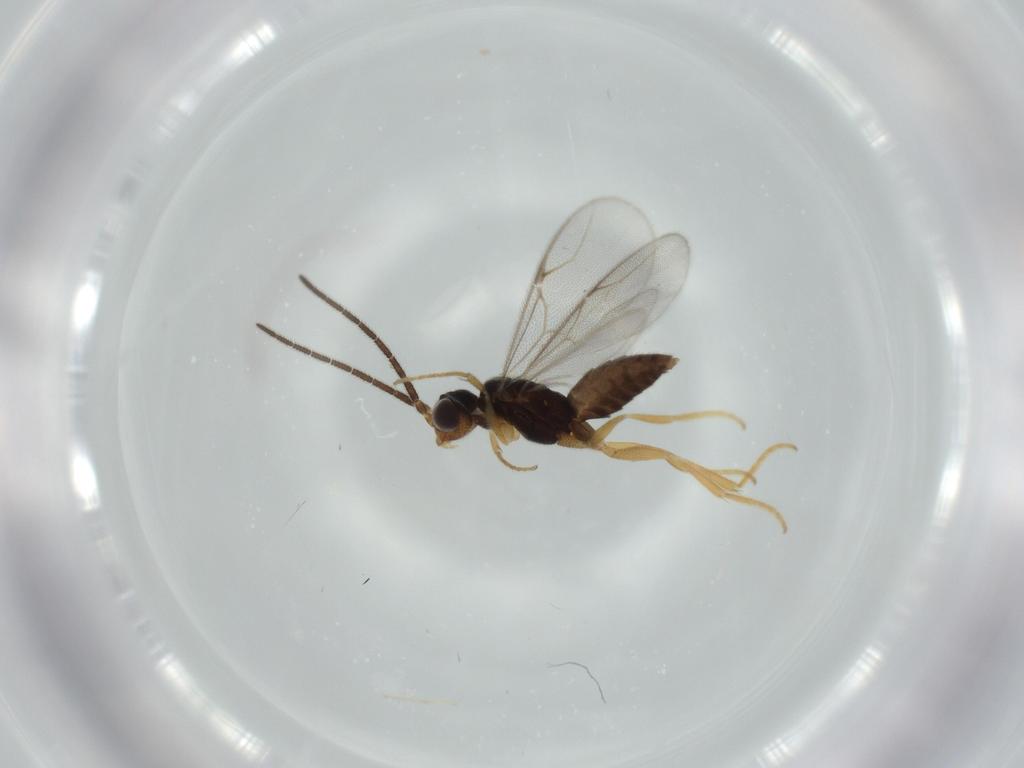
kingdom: Animalia
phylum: Arthropoda
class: Insecta
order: Hymenoptera
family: Dryinidae
